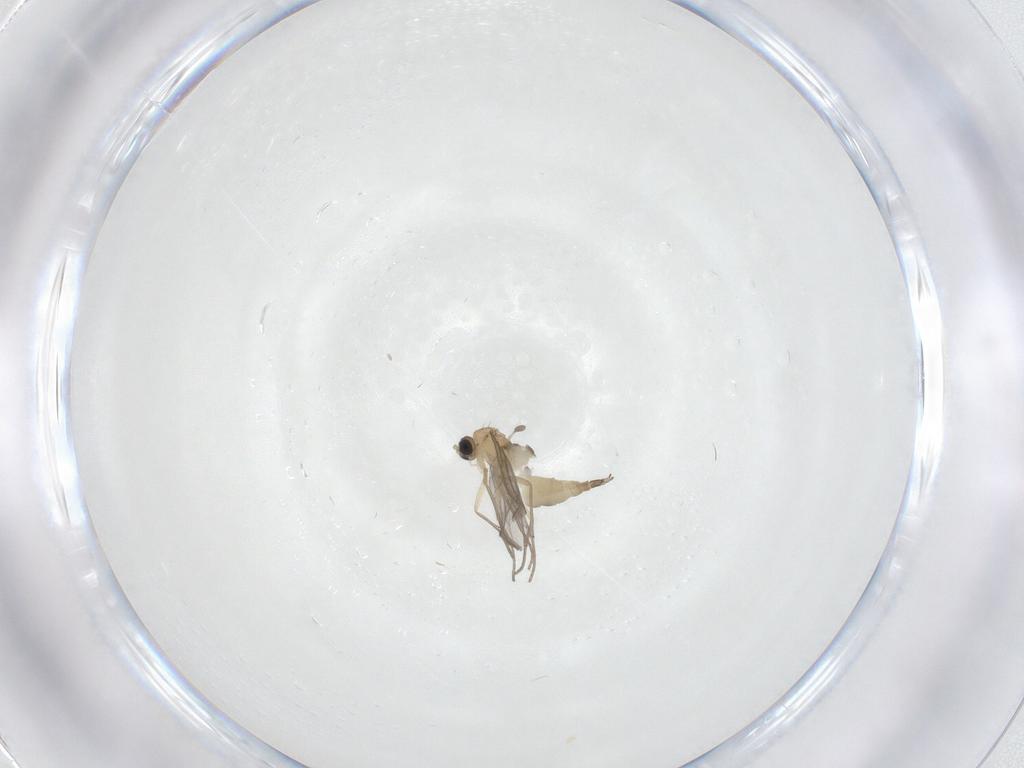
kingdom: Animalia
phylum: Arthropoda
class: Insecta
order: Diptera
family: Sciaridae
